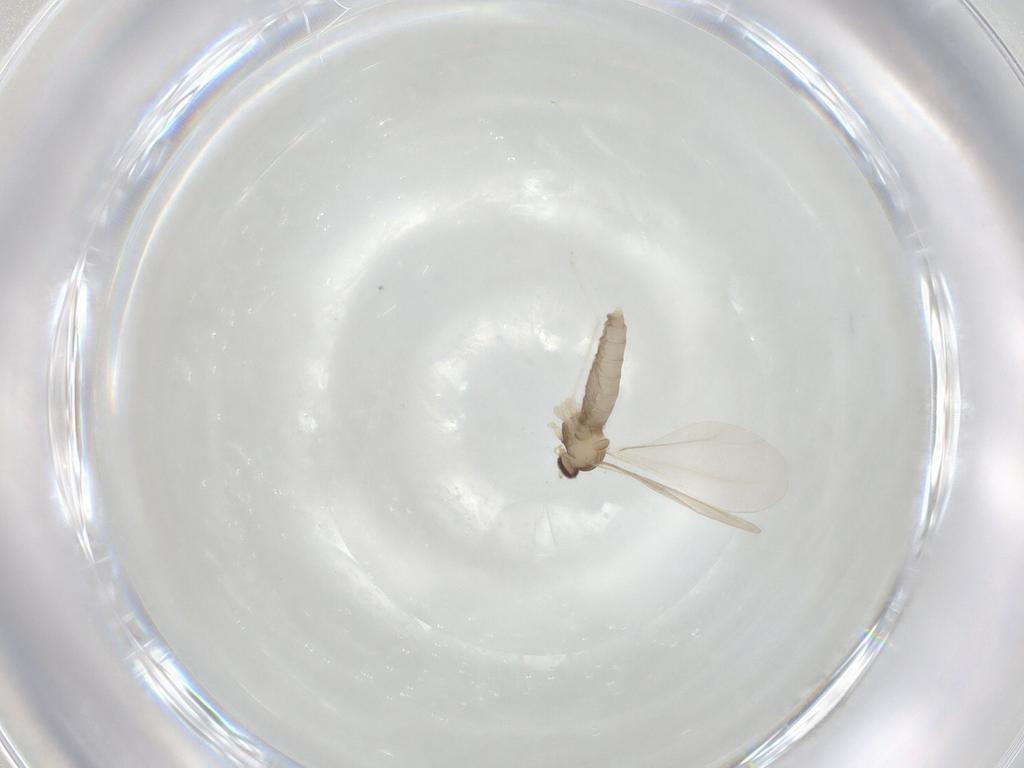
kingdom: Animalia
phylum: Arthropoda
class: Insecta
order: Diptera
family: Cecidomyiidae
